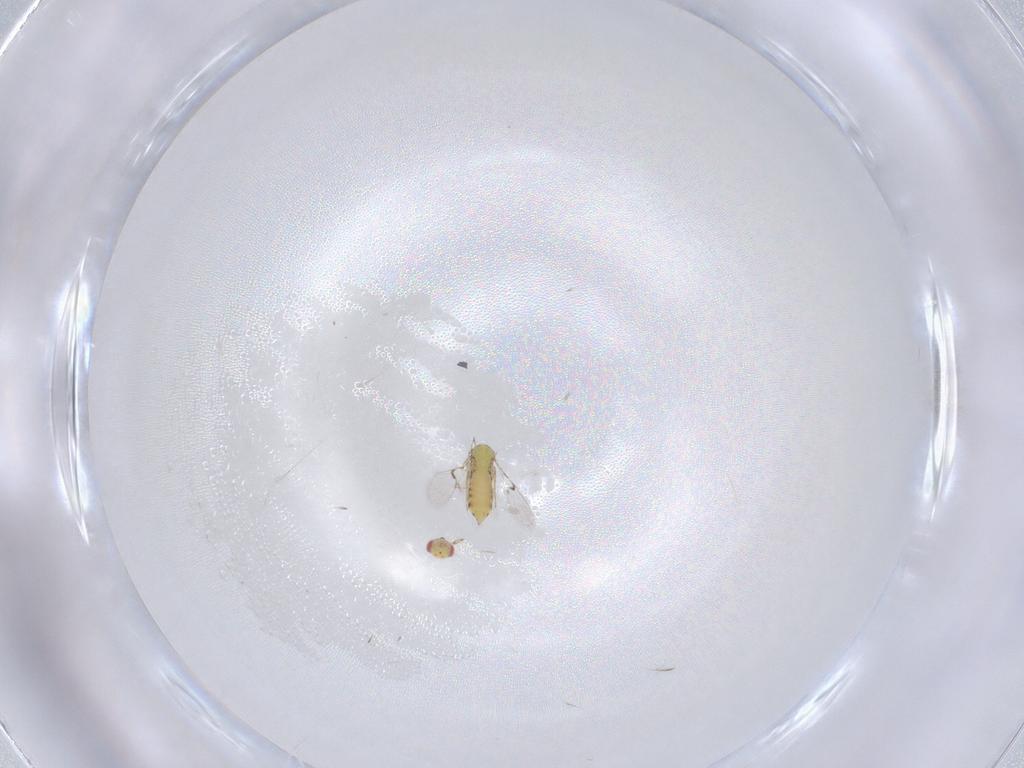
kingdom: Animalia
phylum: Arthropoda
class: Insecta
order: Hymenoptera
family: Trichogrammatidae
